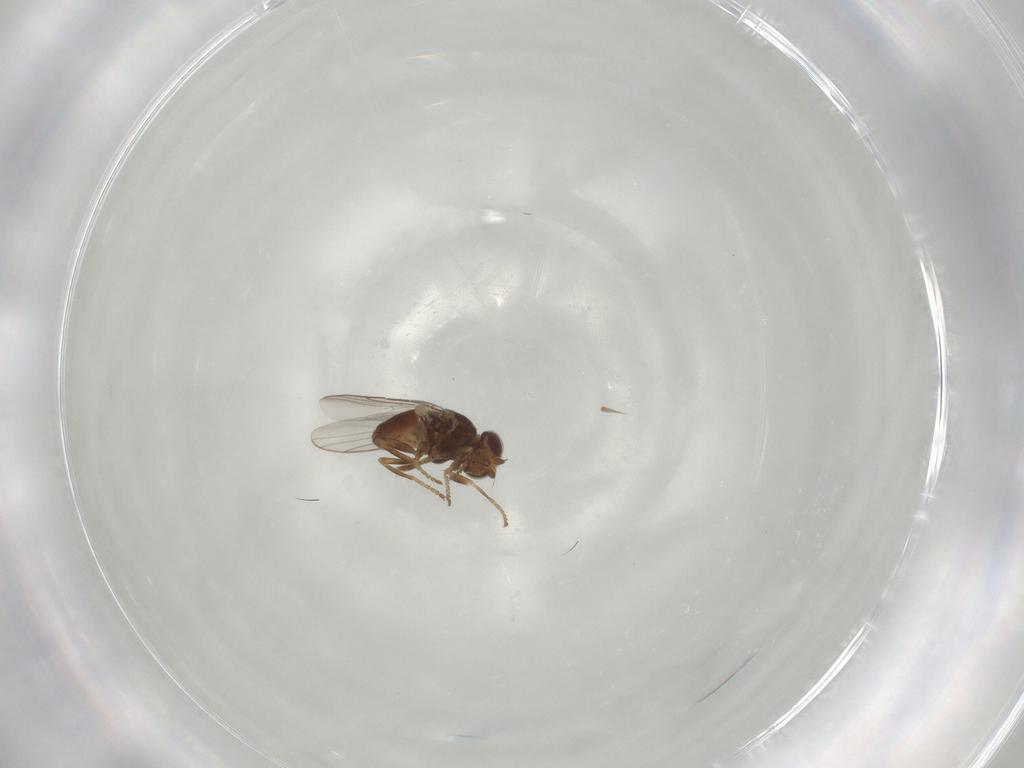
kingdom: Animalia
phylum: Arthropoda
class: Insecta
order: Diptera
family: Chloropidae
